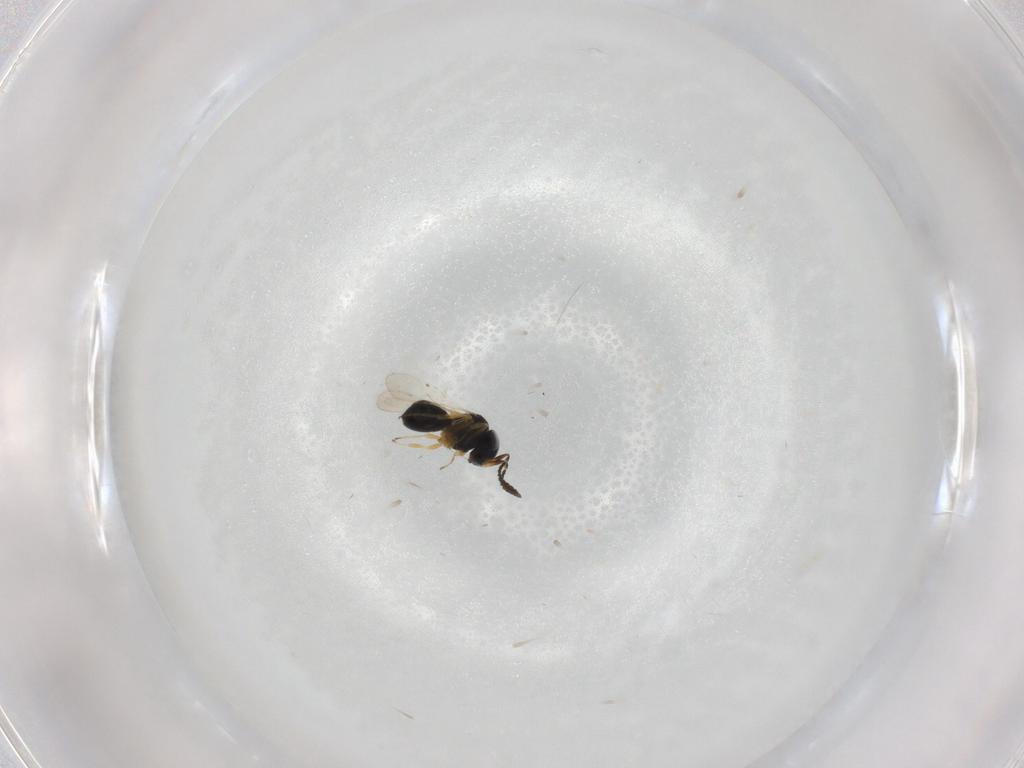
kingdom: Animalia
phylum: Arthropoda
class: Insecta
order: Hymenoptera
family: Scelionidae
